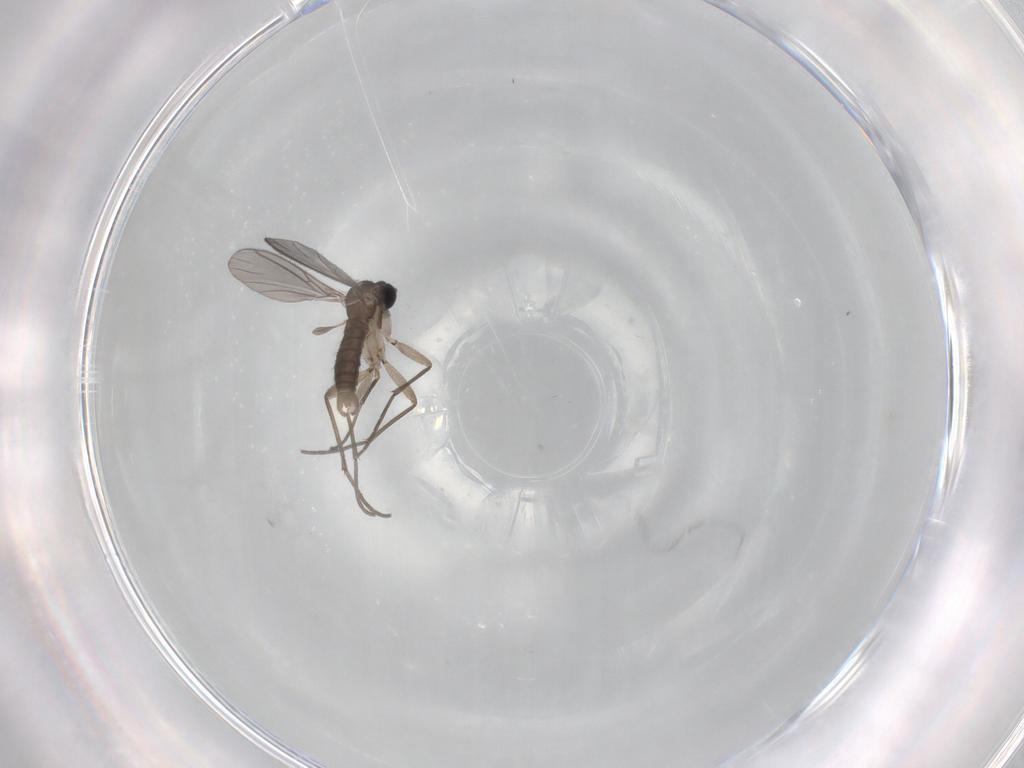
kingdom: Animalia
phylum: Arthropoda
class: Insecta
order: Diptera
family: Sciaridae
